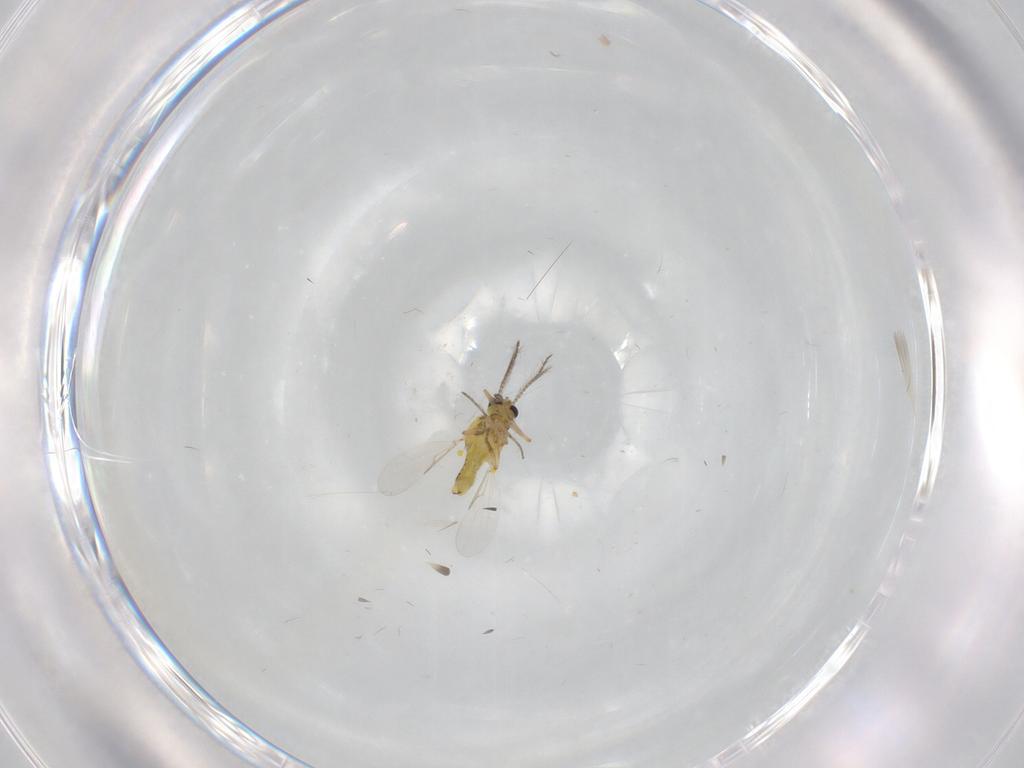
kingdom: Animalia
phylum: Arthropoda
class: Insecta
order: Diptera
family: Ceratopogonidae
